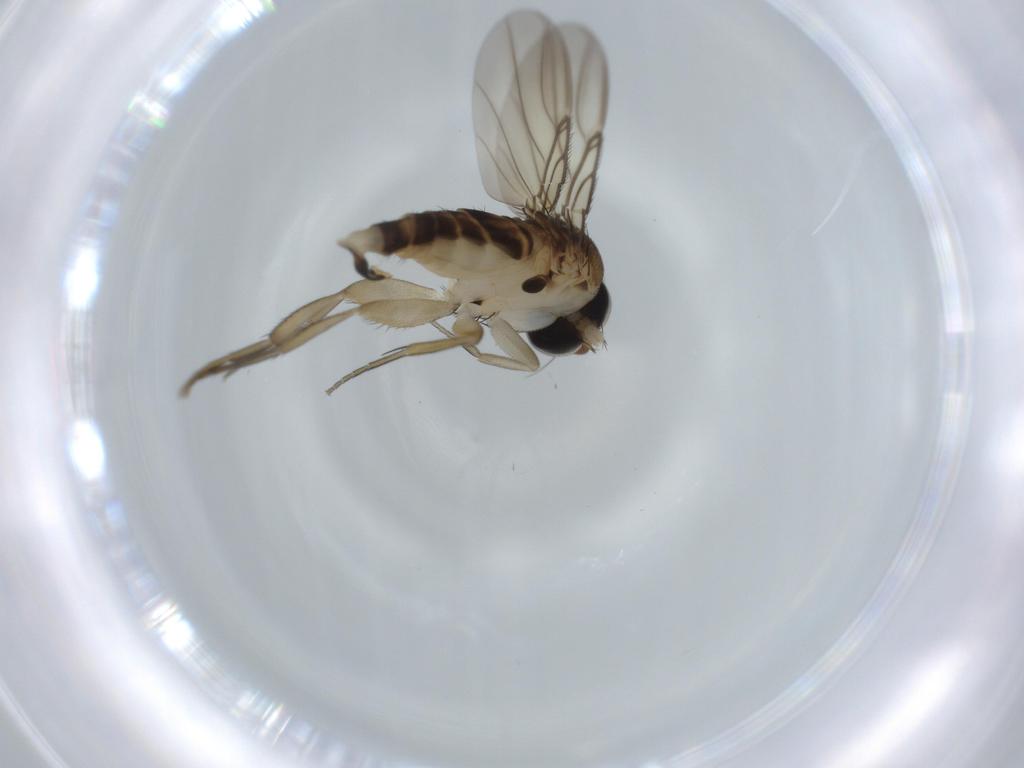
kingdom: Animalia
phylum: Arthropoda
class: Insecta
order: Diptera
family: Phoridae
